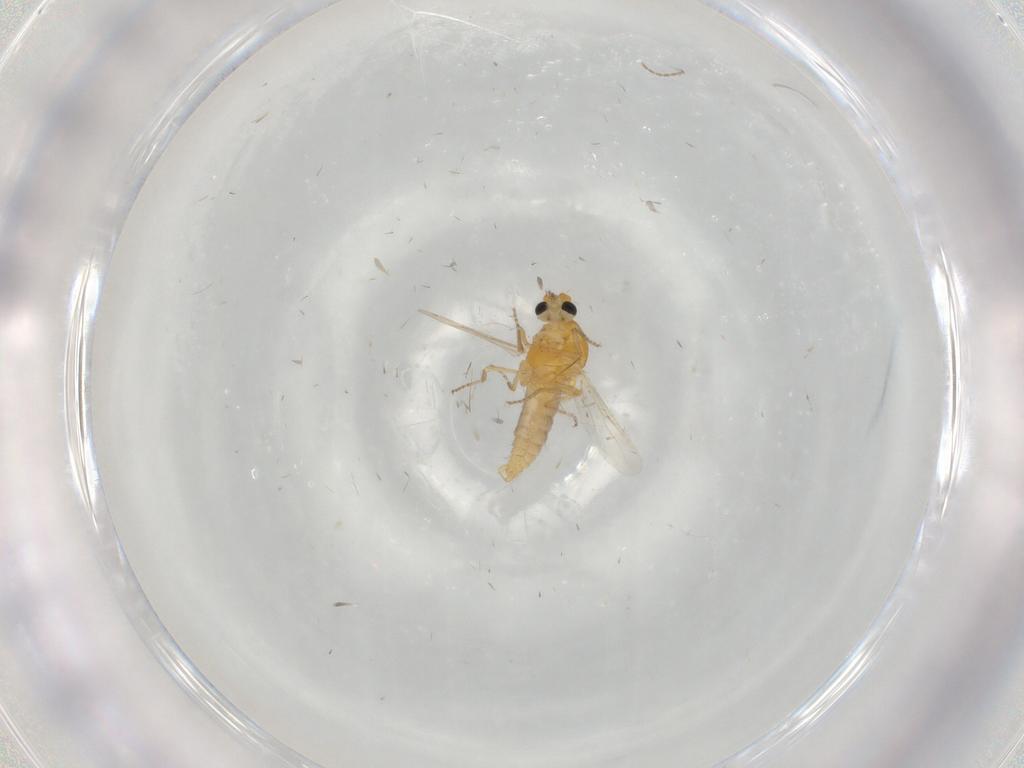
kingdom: Animalia
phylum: Arthropoda
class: Insecta
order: Diptera
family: Ceratopogonidae
